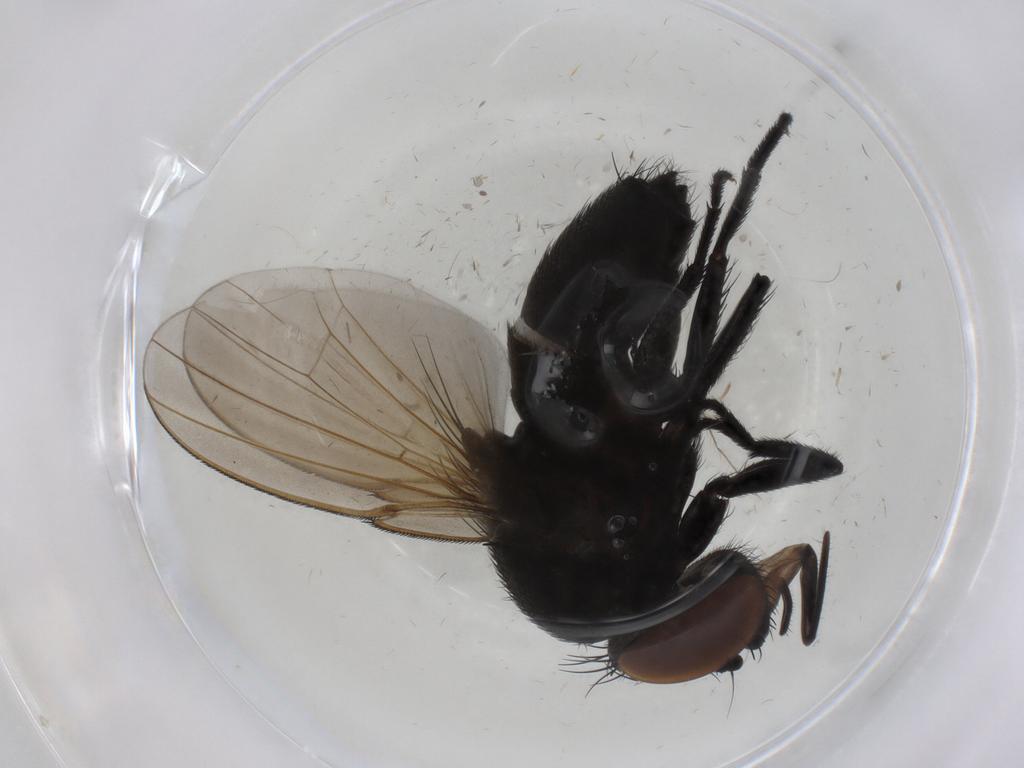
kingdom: Animalia
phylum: Arthropoda
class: Insecta
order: Diptera
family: Milichiidae
